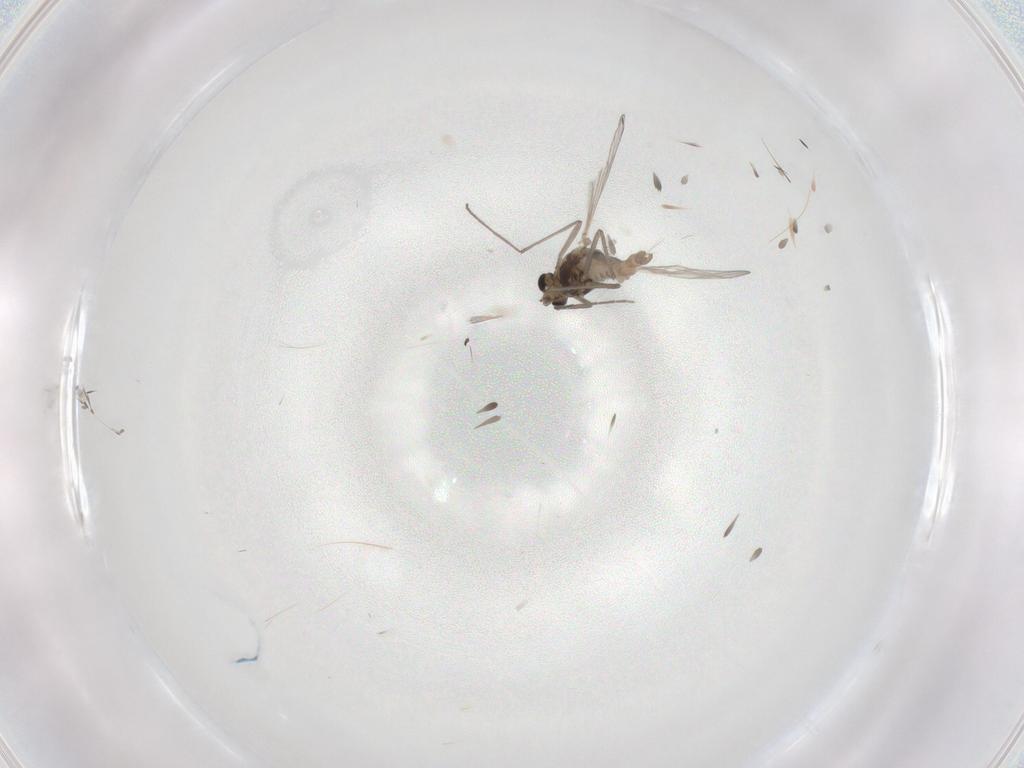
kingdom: Animalia
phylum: Arthropoda
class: Insecta
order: Diptera
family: Chironomidae
